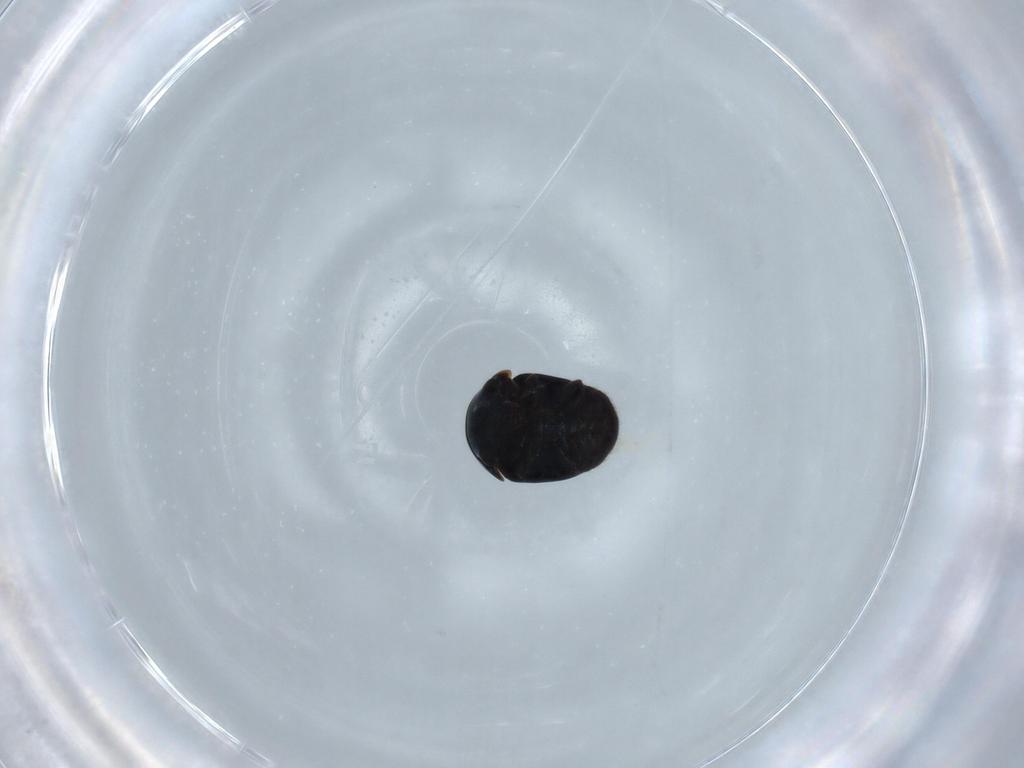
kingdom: Animalia
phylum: Arthropoda
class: Insecta
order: Coleoptera
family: Cybocephalidae
